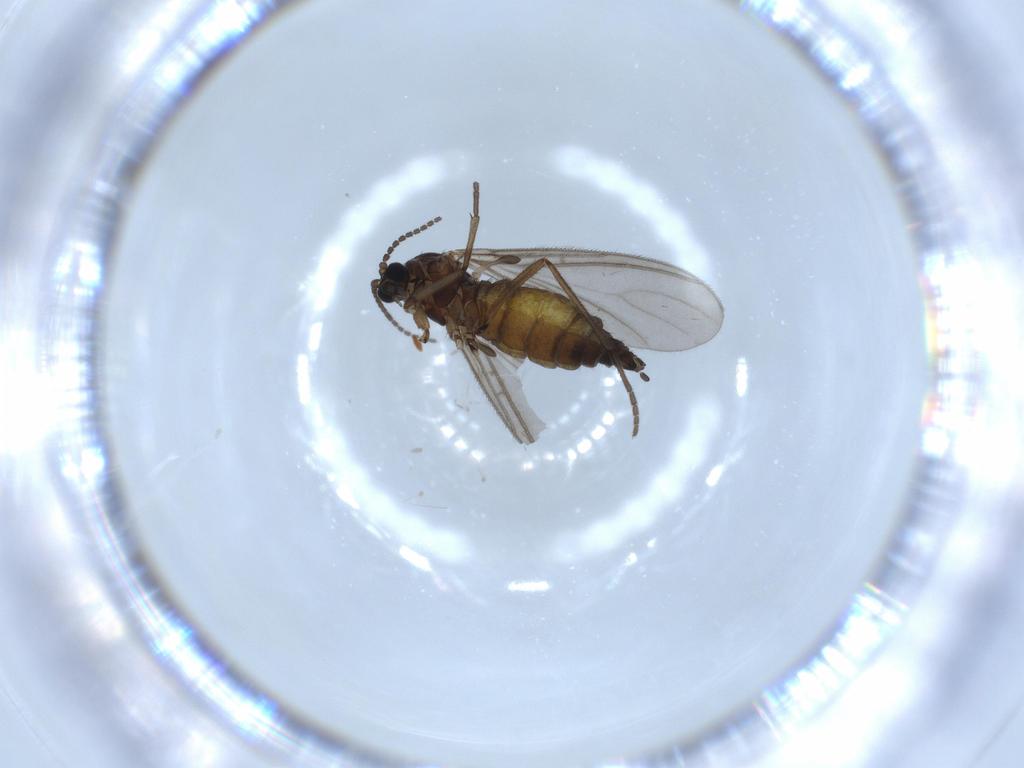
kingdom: Animalia
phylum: Arthropoda
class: Insecta
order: Diptera
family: Sciaridae
